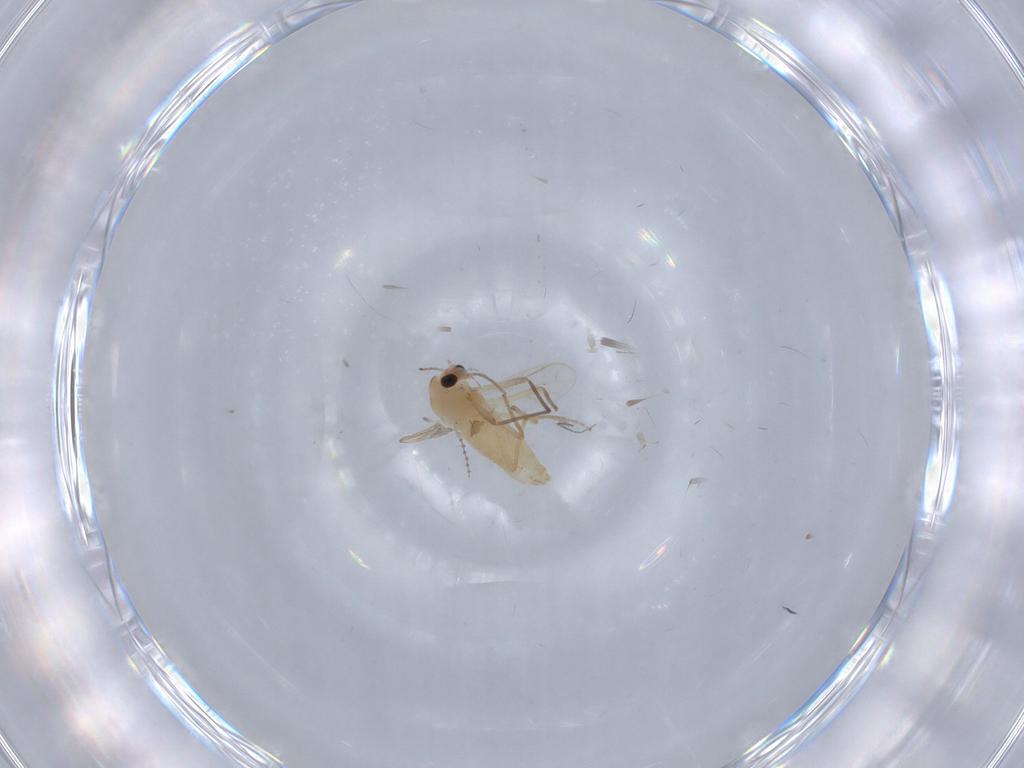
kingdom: Animalia
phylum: Arthropoda
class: Insecta
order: Diptera
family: Chironomidae
